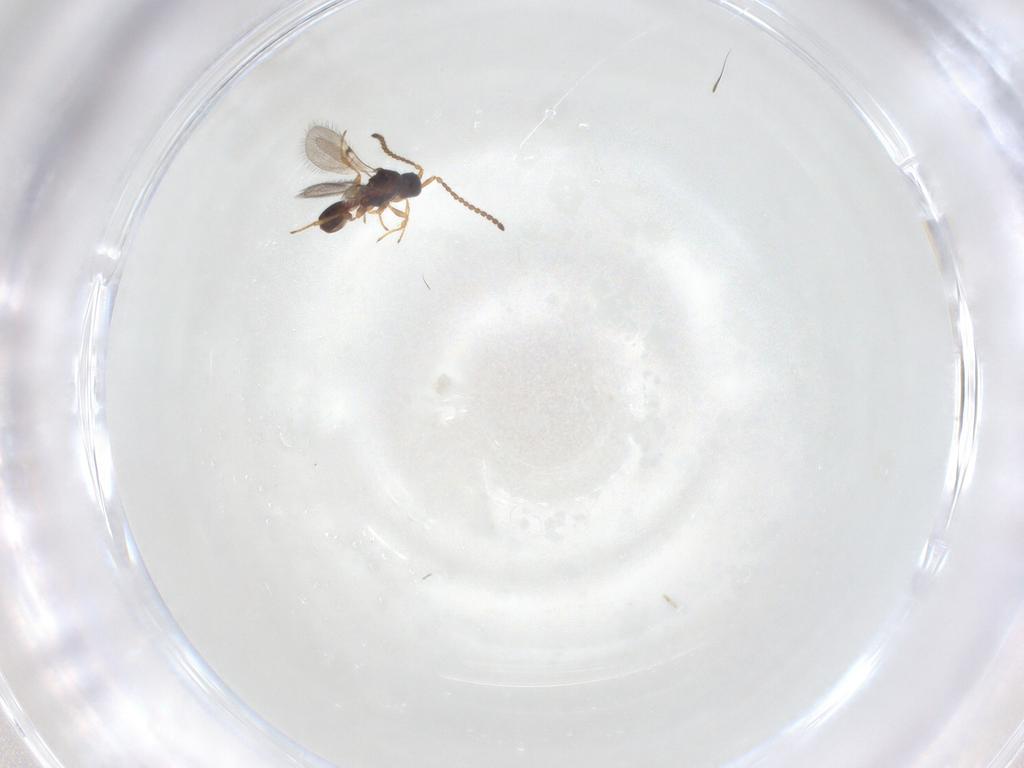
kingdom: Animalia
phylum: Arthropoda
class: Insecta
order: Hymenoptera
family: Diapriidae
